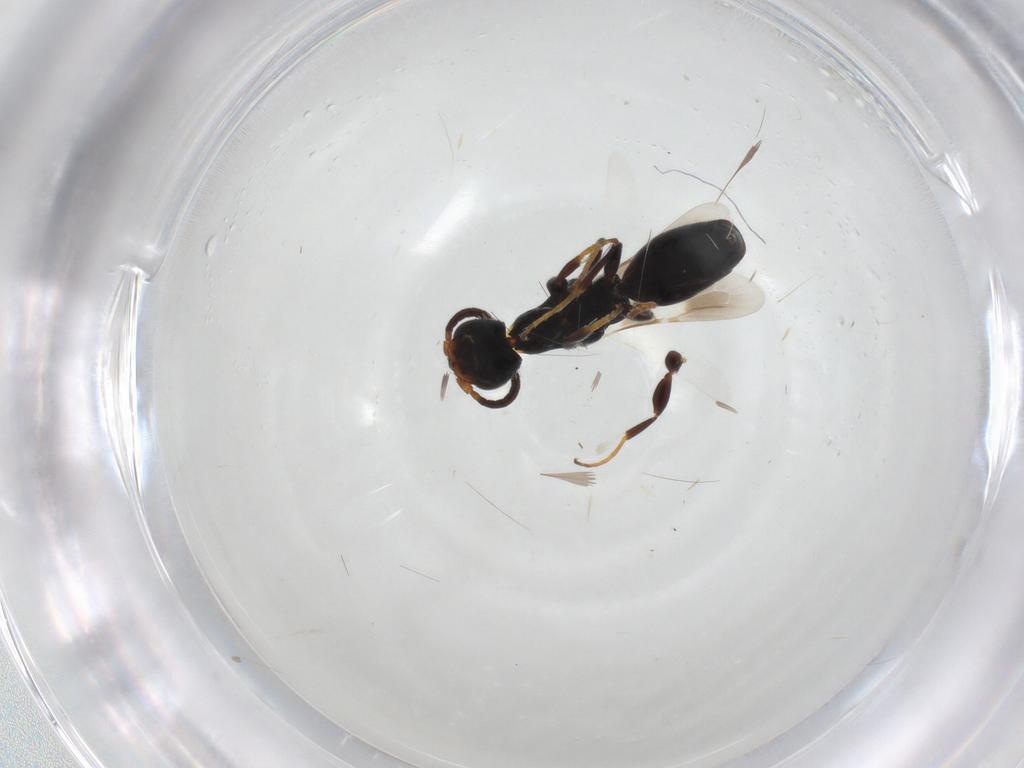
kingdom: Animalia
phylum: Arthropoda
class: Insecta
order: Hymenoptera
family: Bethylidae
